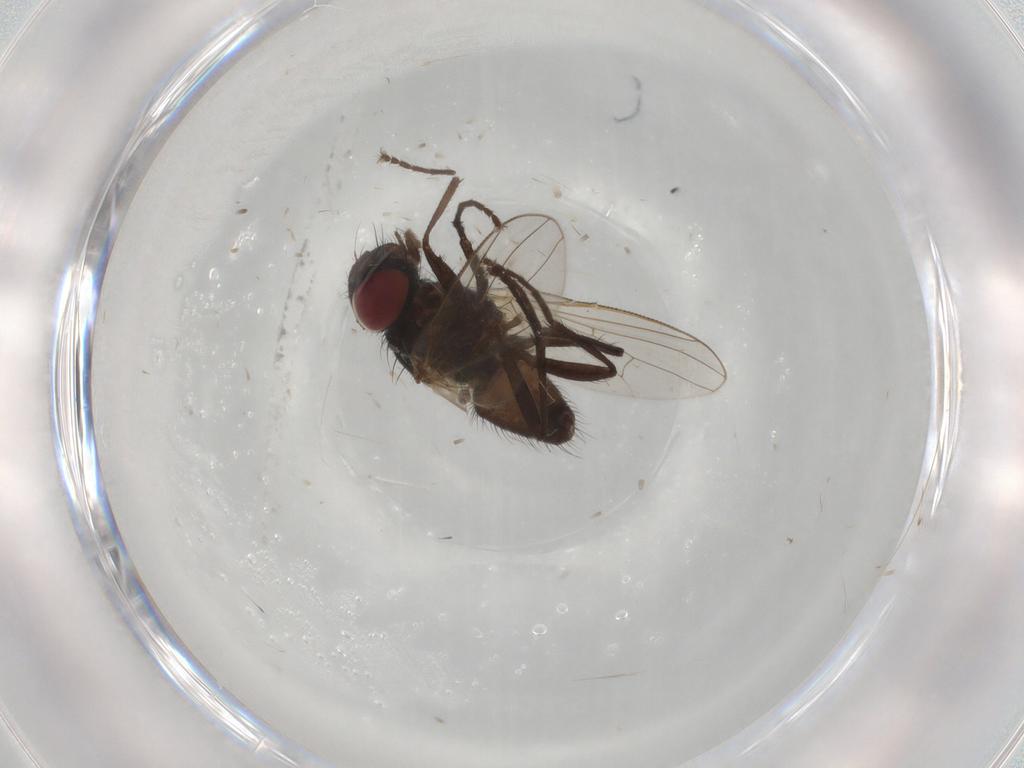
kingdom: Animalia
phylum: Arthropoda
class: Insecta
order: Diptera
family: Muscidae
